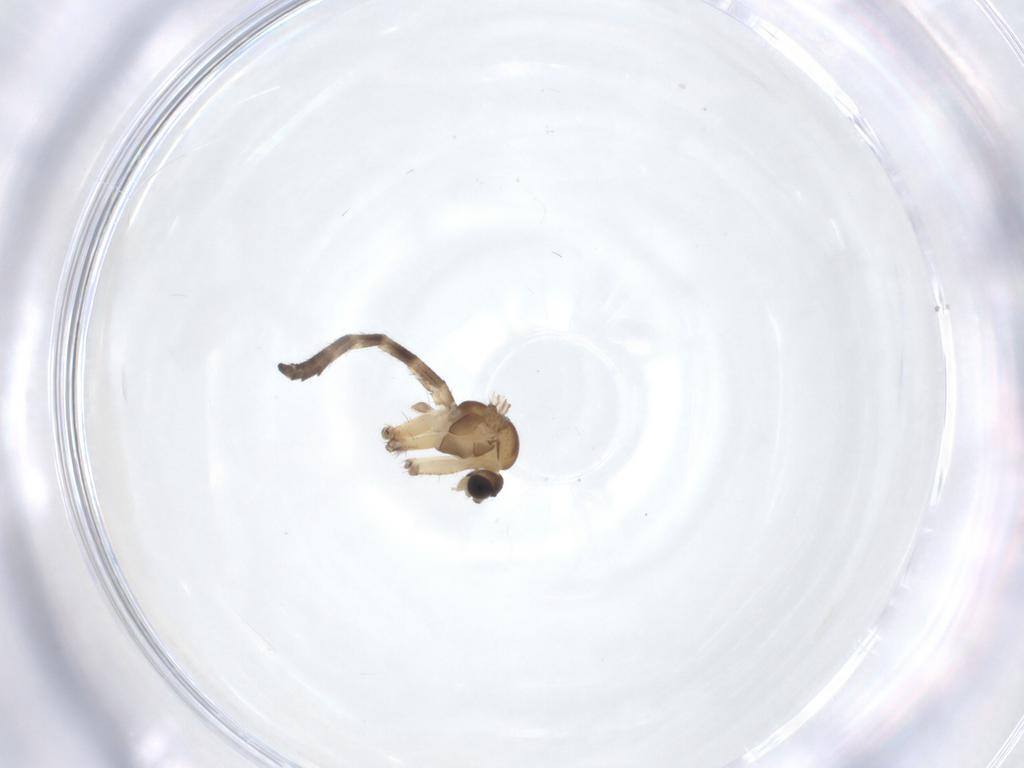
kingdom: Animalia
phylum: Arthropoda
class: Insecta
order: Diptera
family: Keroplatidae
